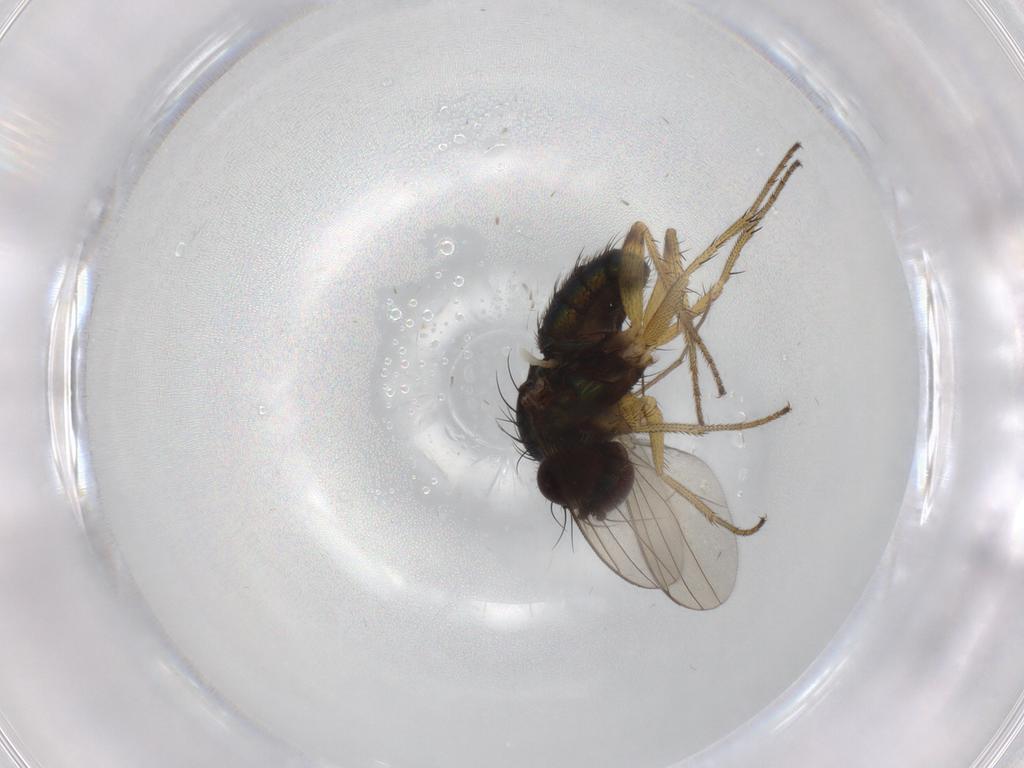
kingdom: Animalia
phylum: Arthropoda
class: Insecta
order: Diptera
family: Dolichopodidae
